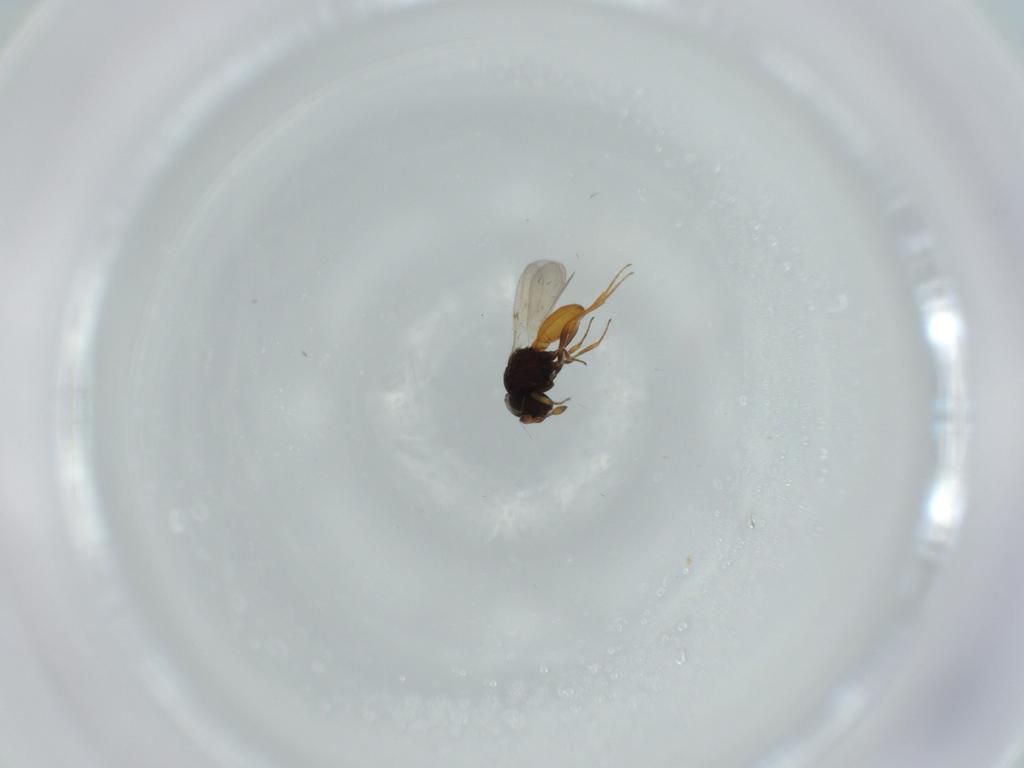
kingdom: Animalia
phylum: Arthropoda
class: Insecta
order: Hymenoptera
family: Scelionidae
